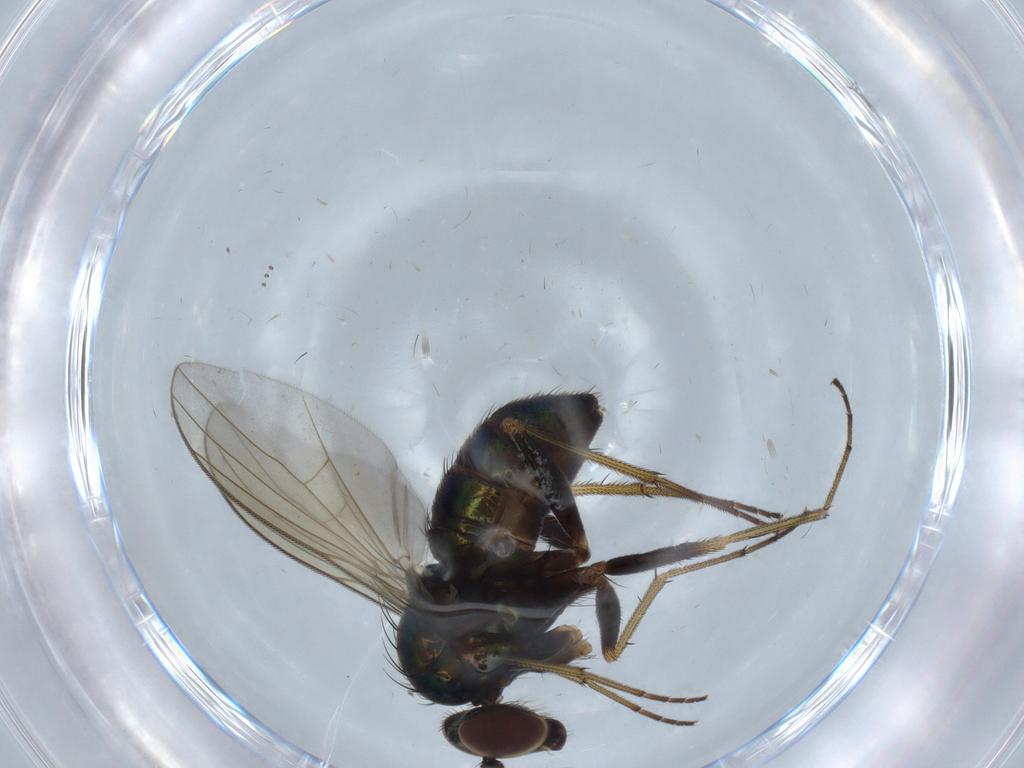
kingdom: Animalia
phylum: Arthropoda
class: Insecta
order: Diptera
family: Dolichopodidae
